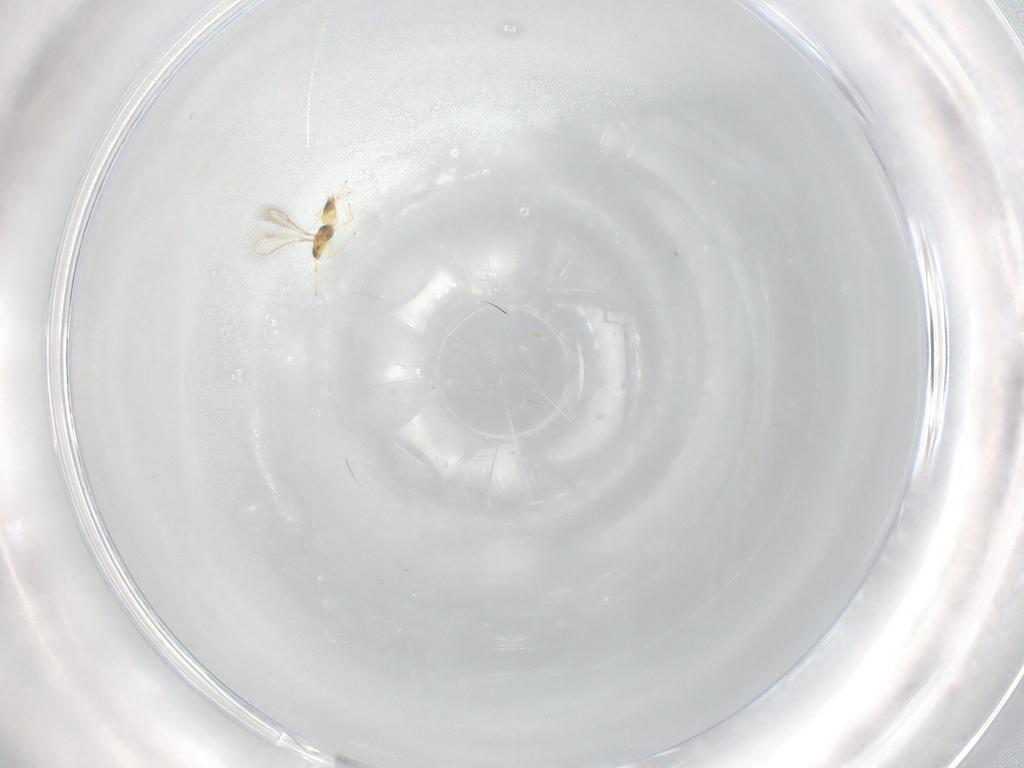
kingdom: Animalia
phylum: Arthropoda
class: Insecta
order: Hymenoptera
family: Mymaridae
